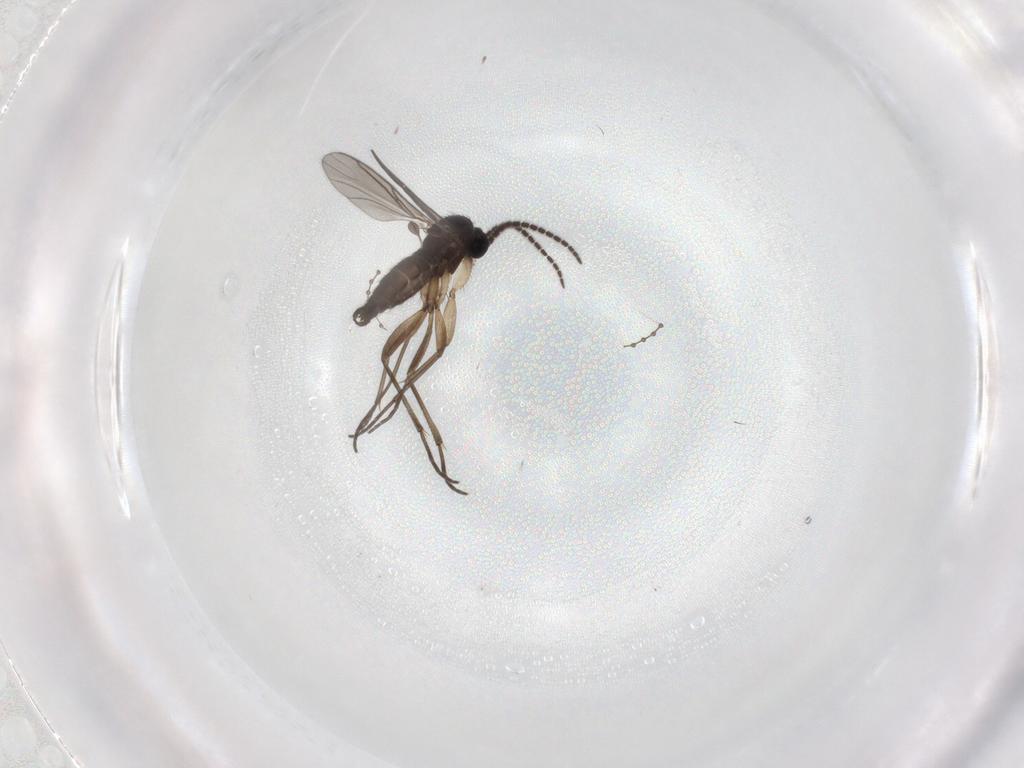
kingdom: Animalia
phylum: Arthropoda
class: Insecta
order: Diptera
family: Sciaridae
